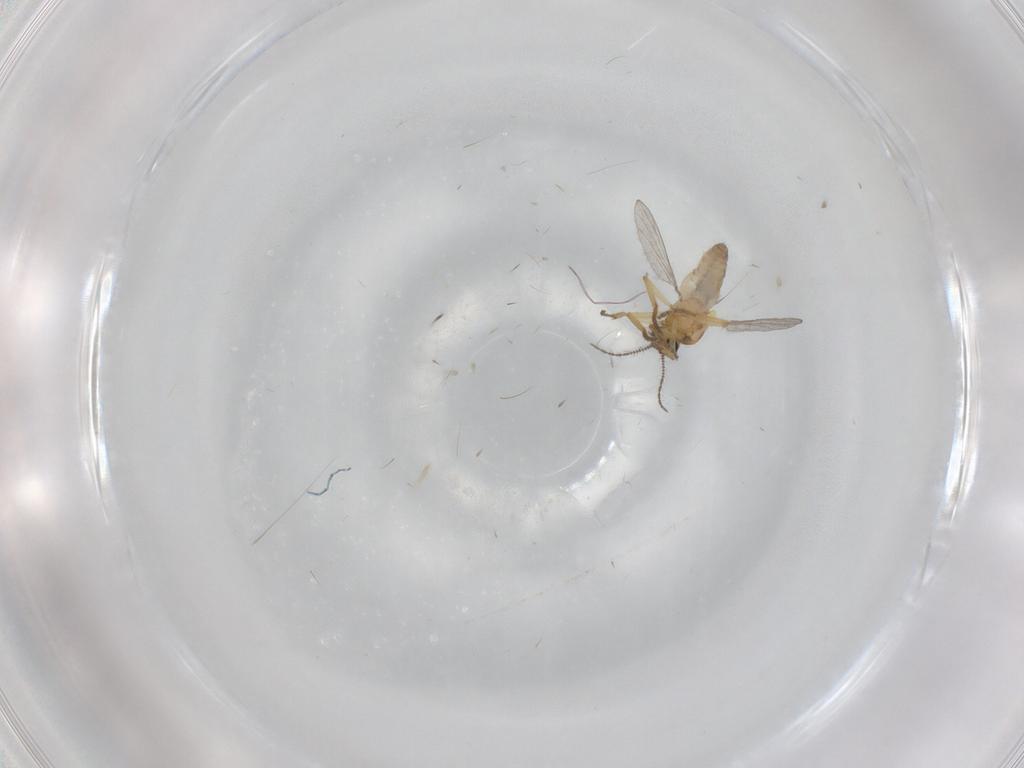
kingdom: Animalia
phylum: Arthropoda
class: Insecta
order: Diptera
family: Ceratopogonidae
